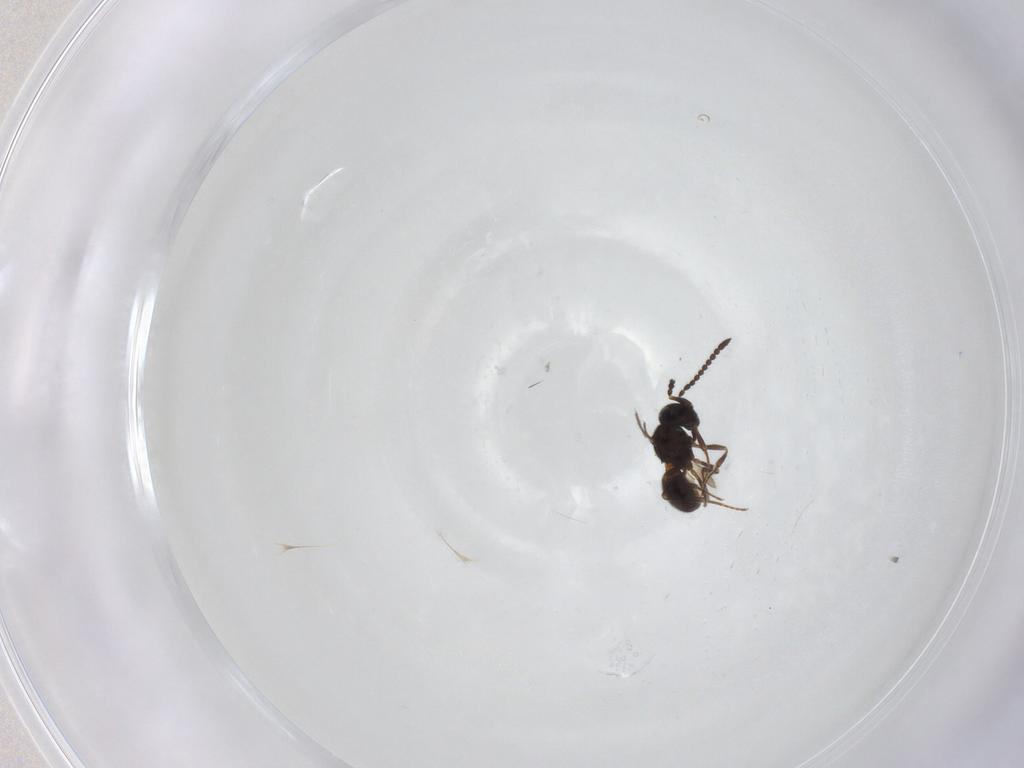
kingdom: Animalia
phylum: Arthropoda
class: Insecta
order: Hymenoptera
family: Scelionidae
